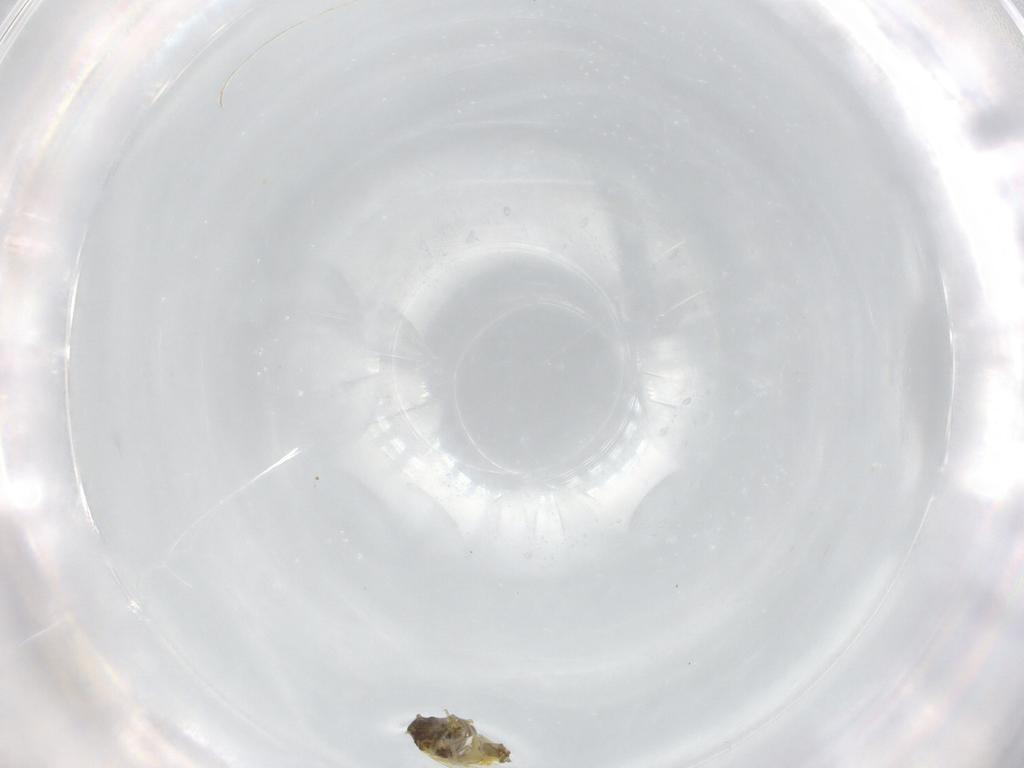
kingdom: Animalia
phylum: Arthropoda
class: Insecta
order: Hemiptera
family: Aleyrodidae
